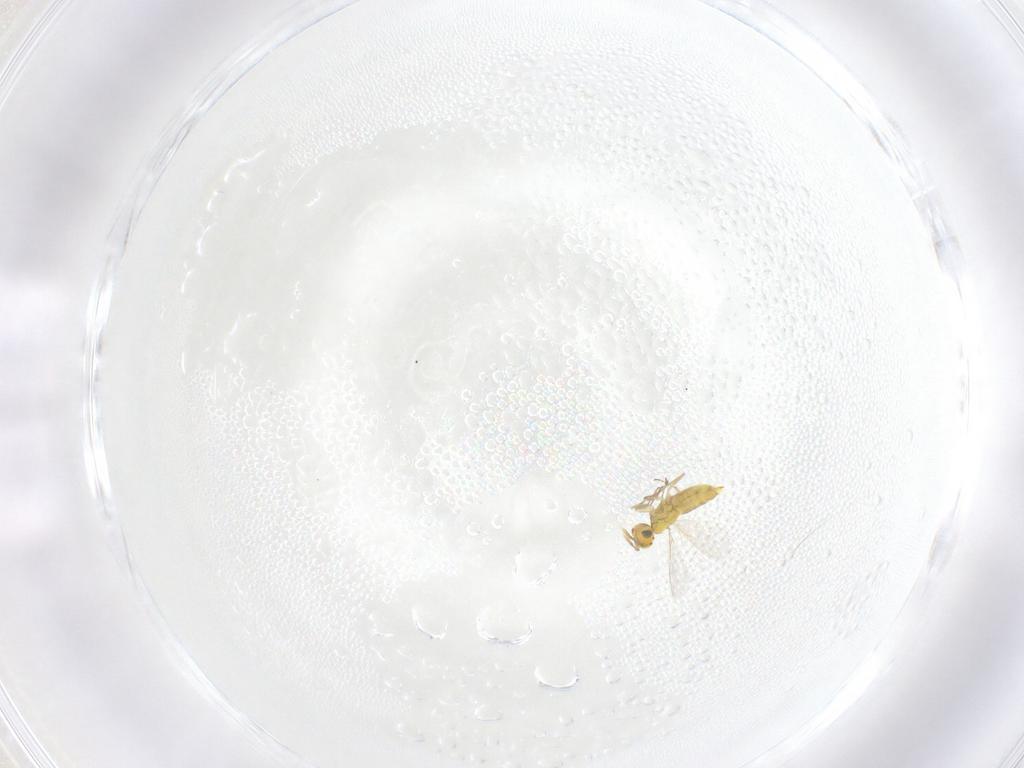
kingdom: Animalia
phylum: Arthropoda
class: Insecta
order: Hymenoptera
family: Aphelinidae
